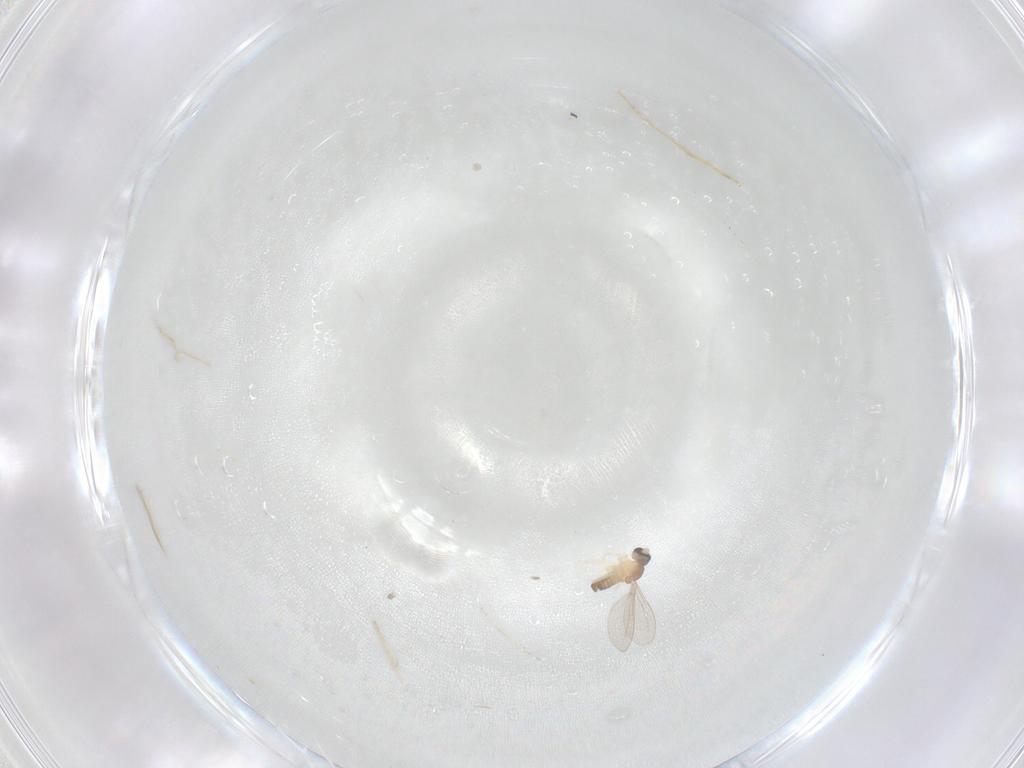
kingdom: Animalia
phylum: Arthropoda
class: Insecta
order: Diptera
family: Cecidomyiidae
